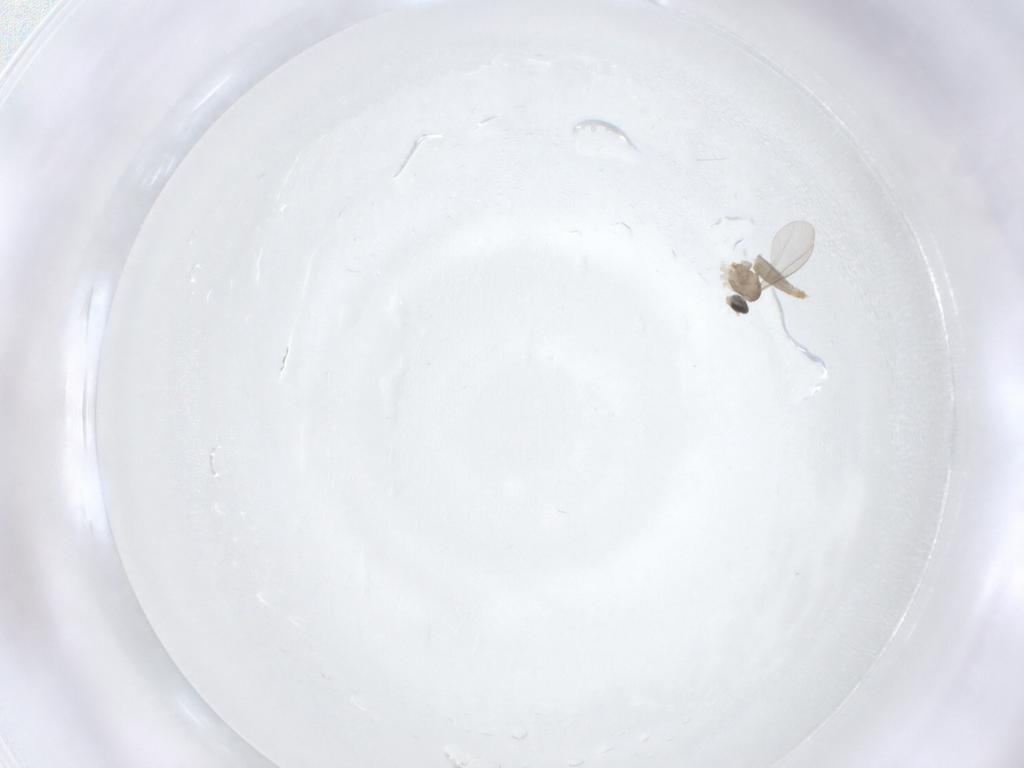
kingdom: Animalia
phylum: Arthropoda
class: Insecta
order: Diptera
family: Cecidomyiidae
